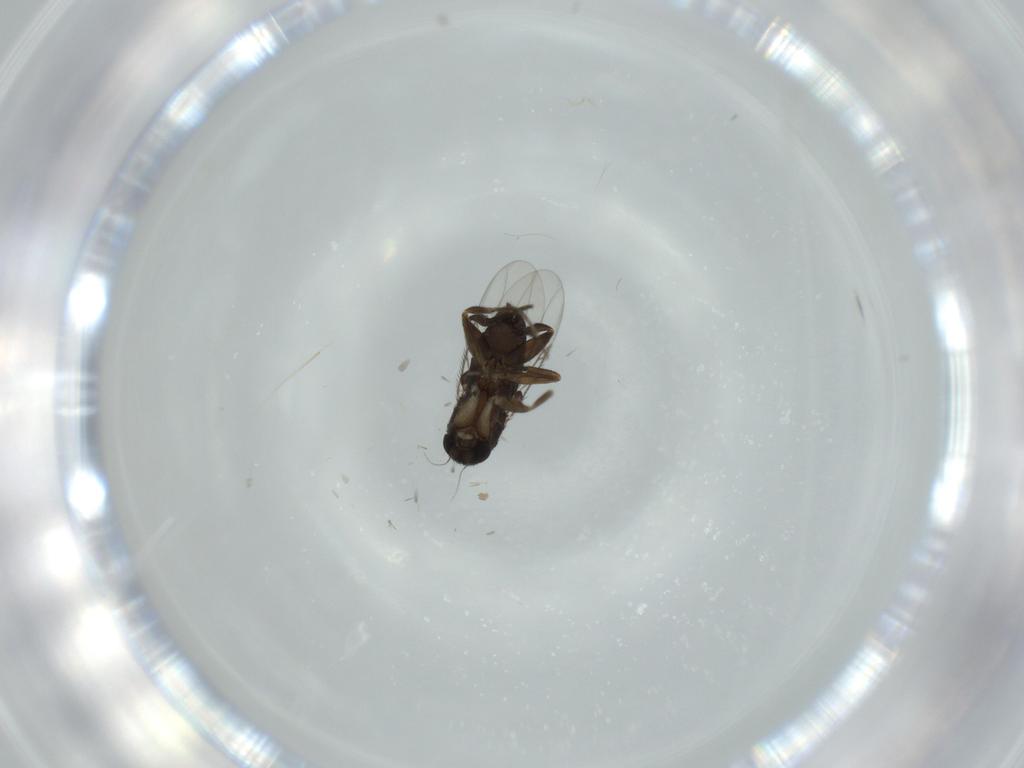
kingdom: Animalia
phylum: Arthropoda
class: Insecta
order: Diptera
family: Phoridae
